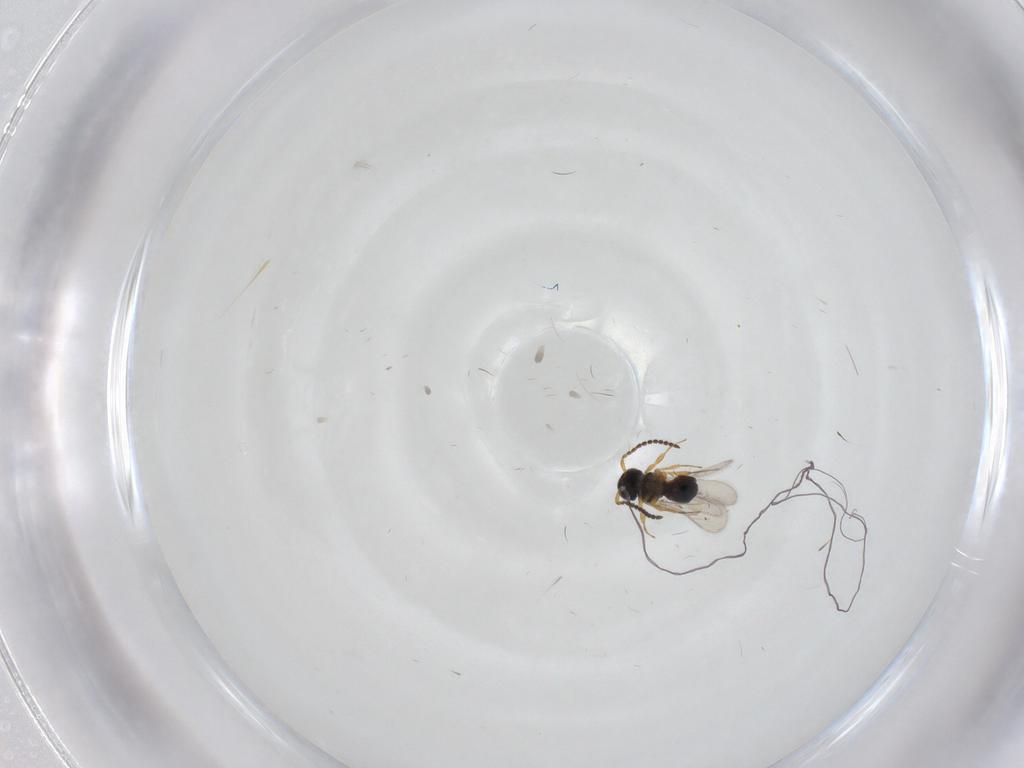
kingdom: Animalia
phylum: Arthropoda
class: Insecta
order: Hymenoptera
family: Scelionidae
